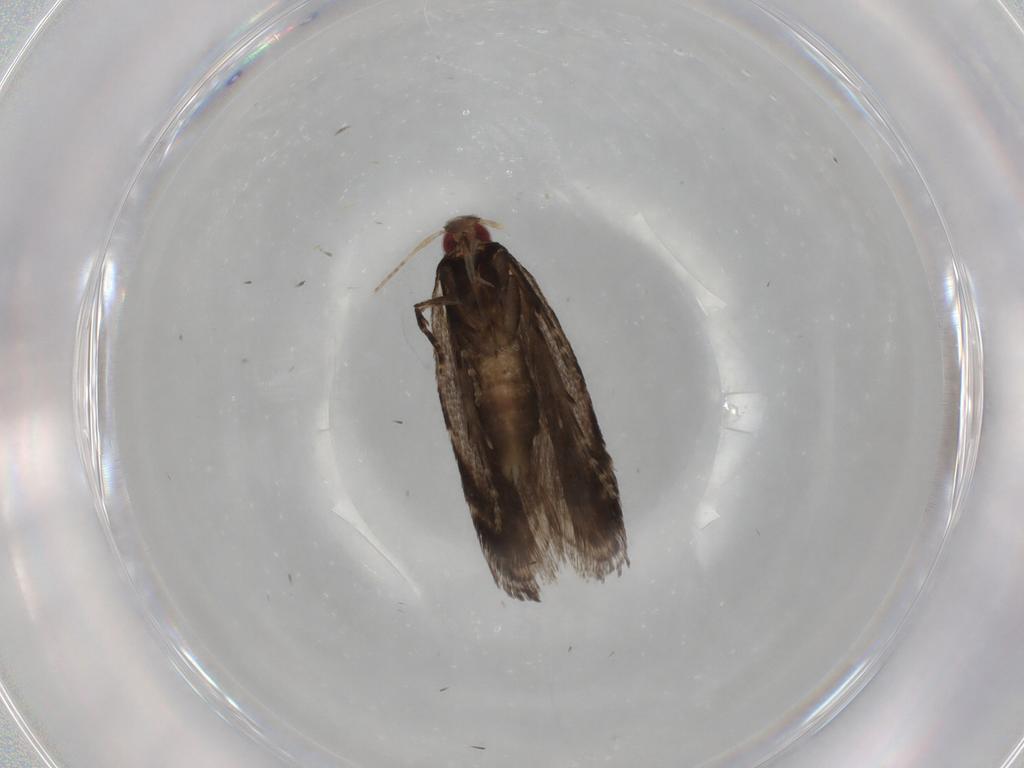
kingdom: Animalia
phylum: Arthropoda
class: Insecta
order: Lepidoptera
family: Gelechiidae
